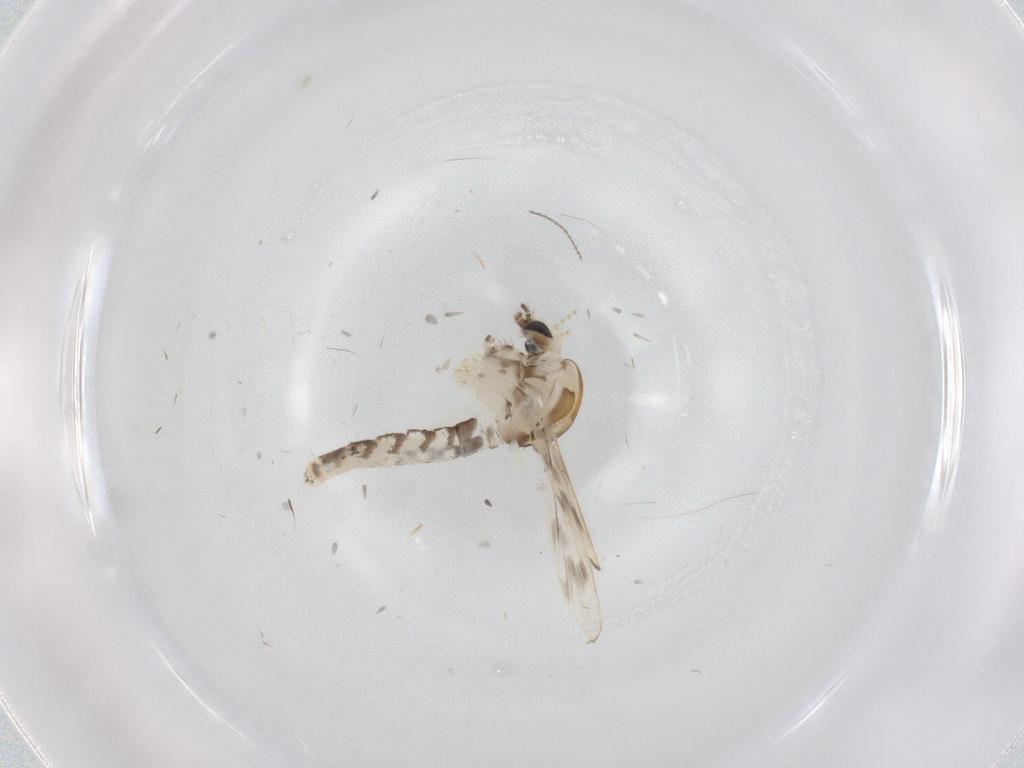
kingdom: Animalia
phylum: Arthropoda
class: Insecta
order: Diptera
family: Corethrellidae
